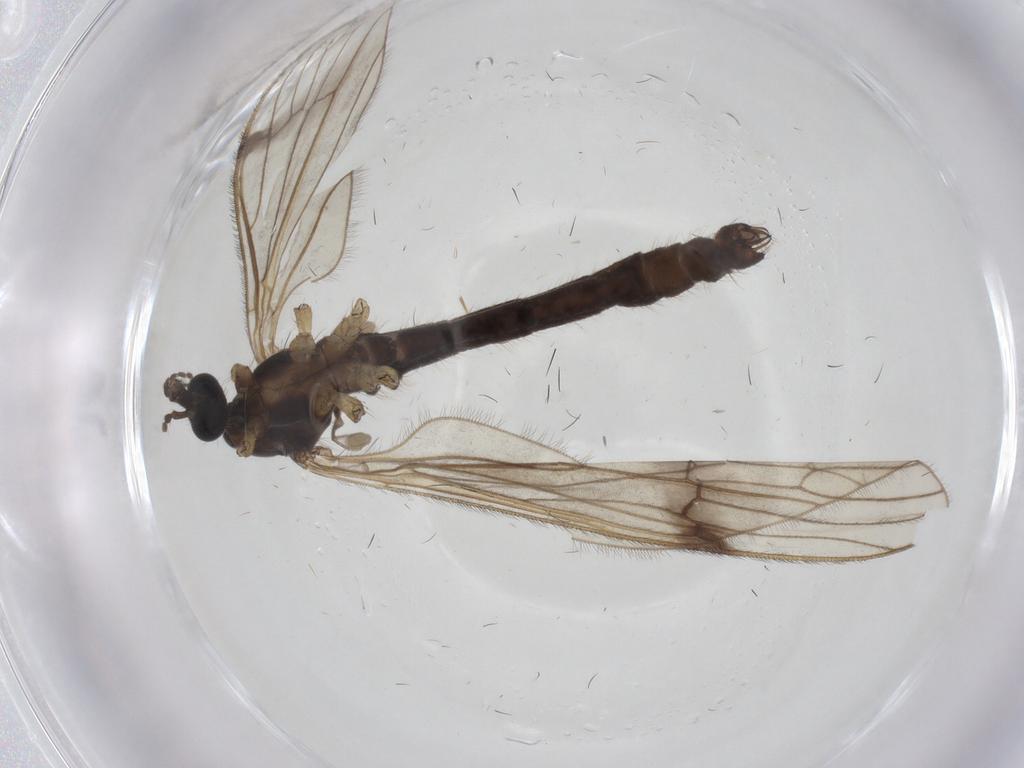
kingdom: Animalia
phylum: Arthropoda
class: Insecta
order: Diptera
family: Limoniidae
